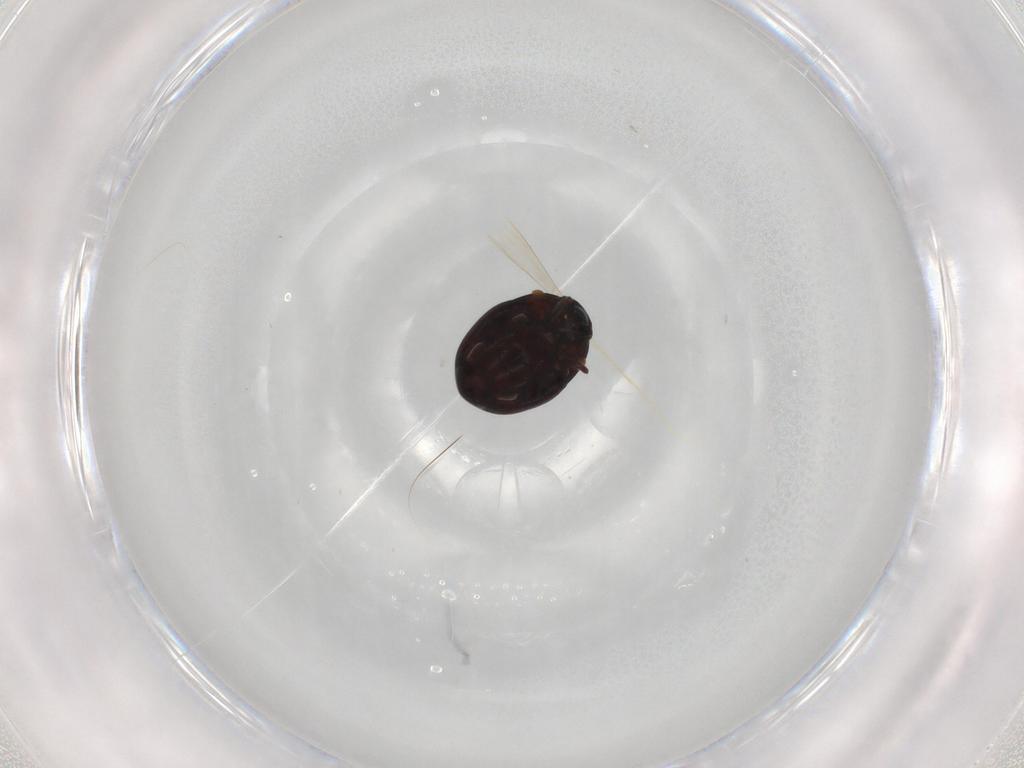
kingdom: Animalia
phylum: Arthropoda
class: Insecta
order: Coleoptera
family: Histeridae
